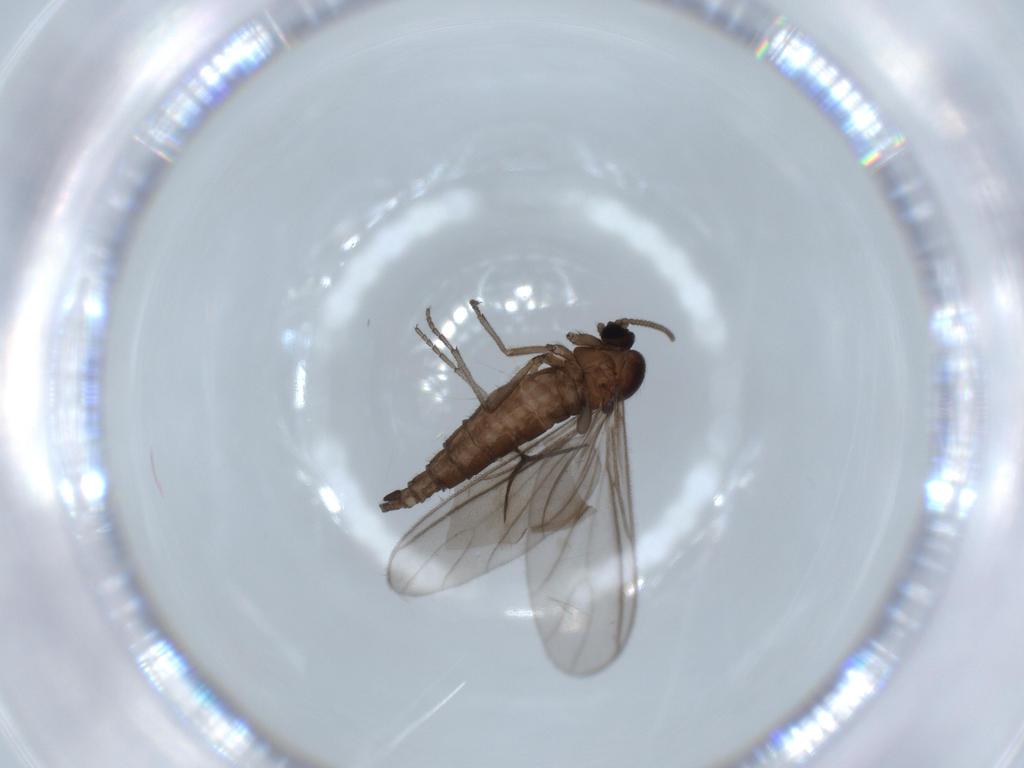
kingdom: Animalia
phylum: Arthropoda
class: Insecta
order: Diptera
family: Sciaridae
